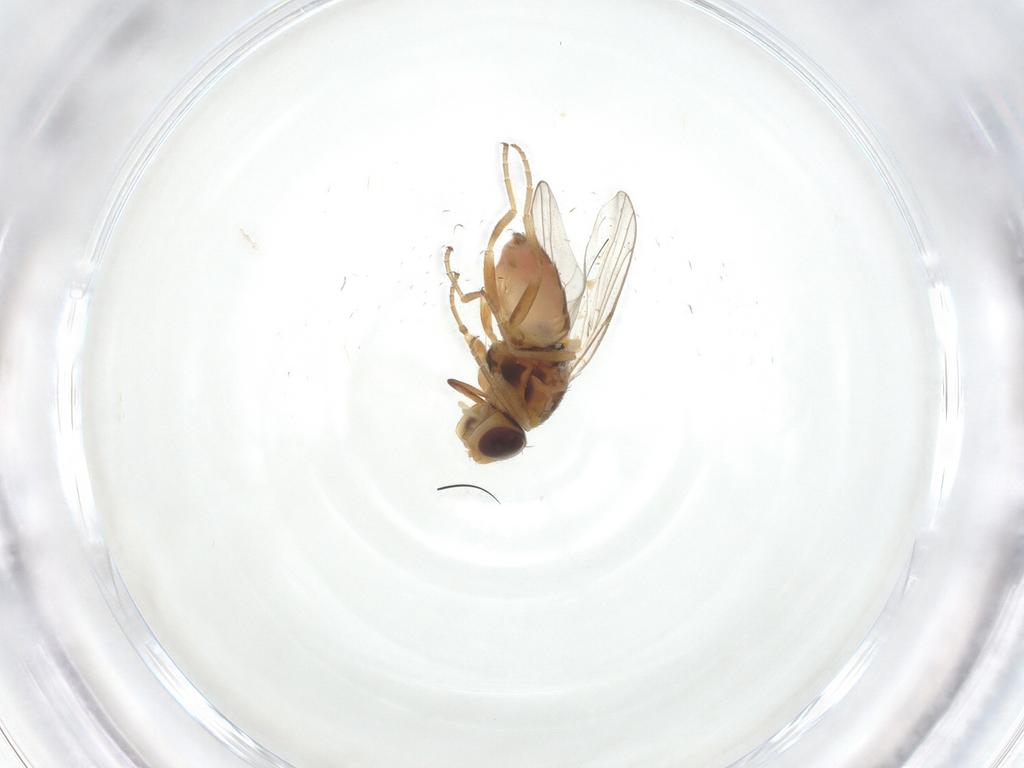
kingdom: Animalia
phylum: Arthropoda
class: Insecta
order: Diptera
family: Chloropidae
